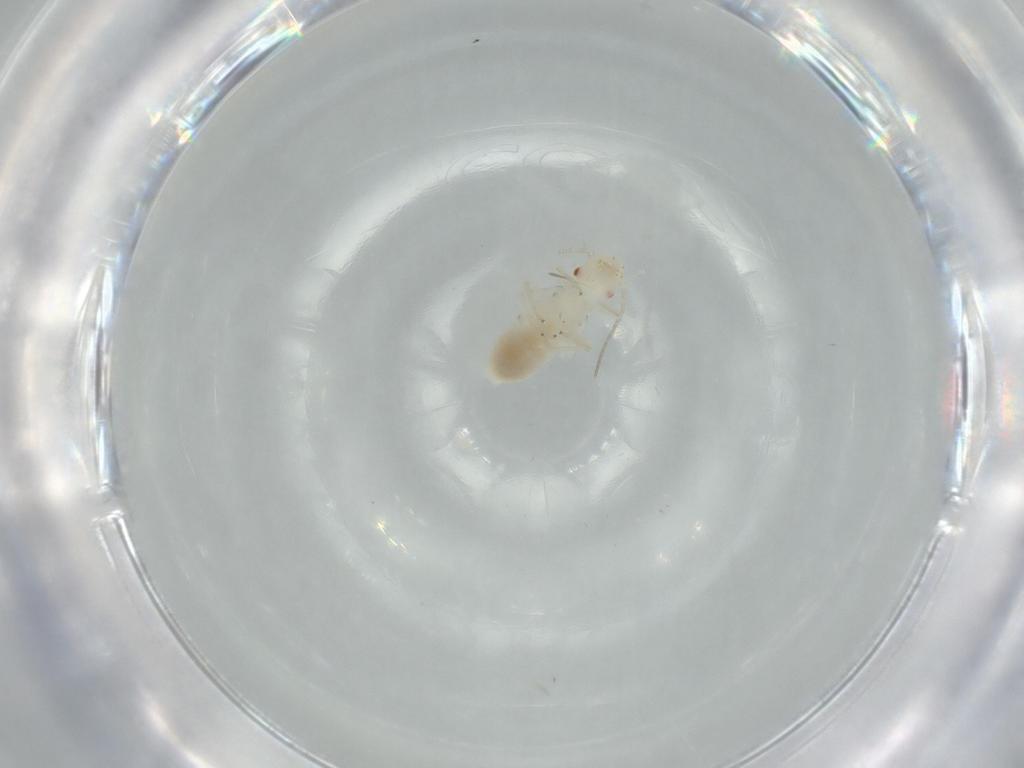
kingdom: Animalia
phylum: Arthropoda
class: Insecta
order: Psocodea
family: Caeciliusidae
